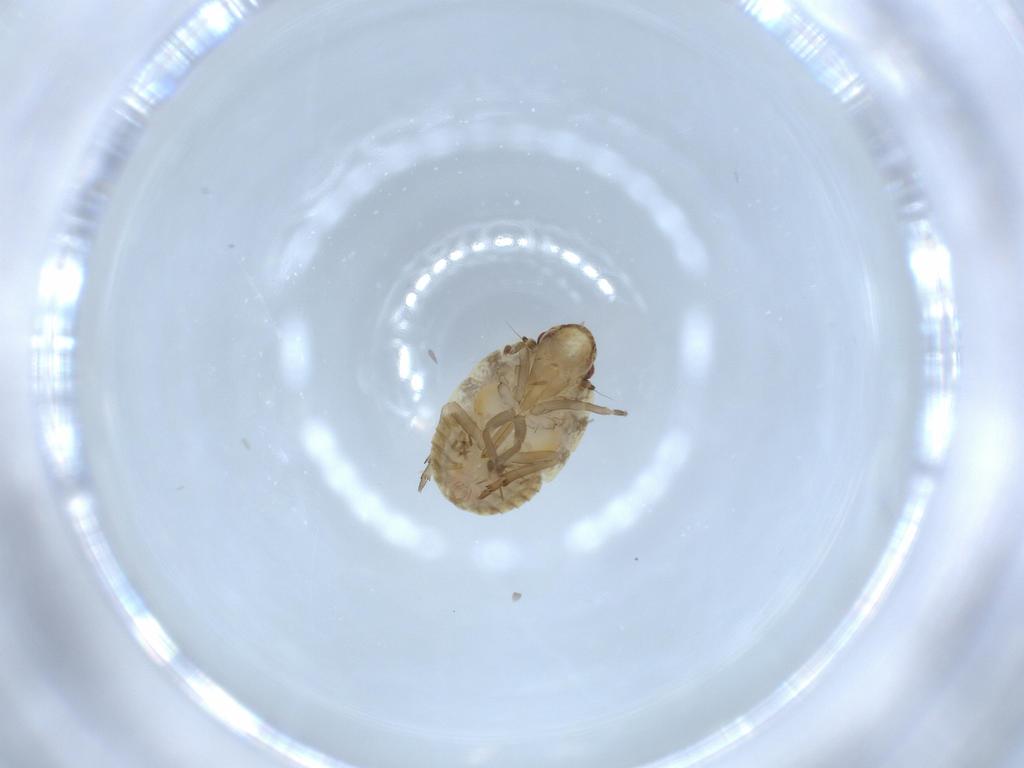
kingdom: Animalia
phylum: Arthropoda
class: Insecta
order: Hemiptera
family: Flatidae
